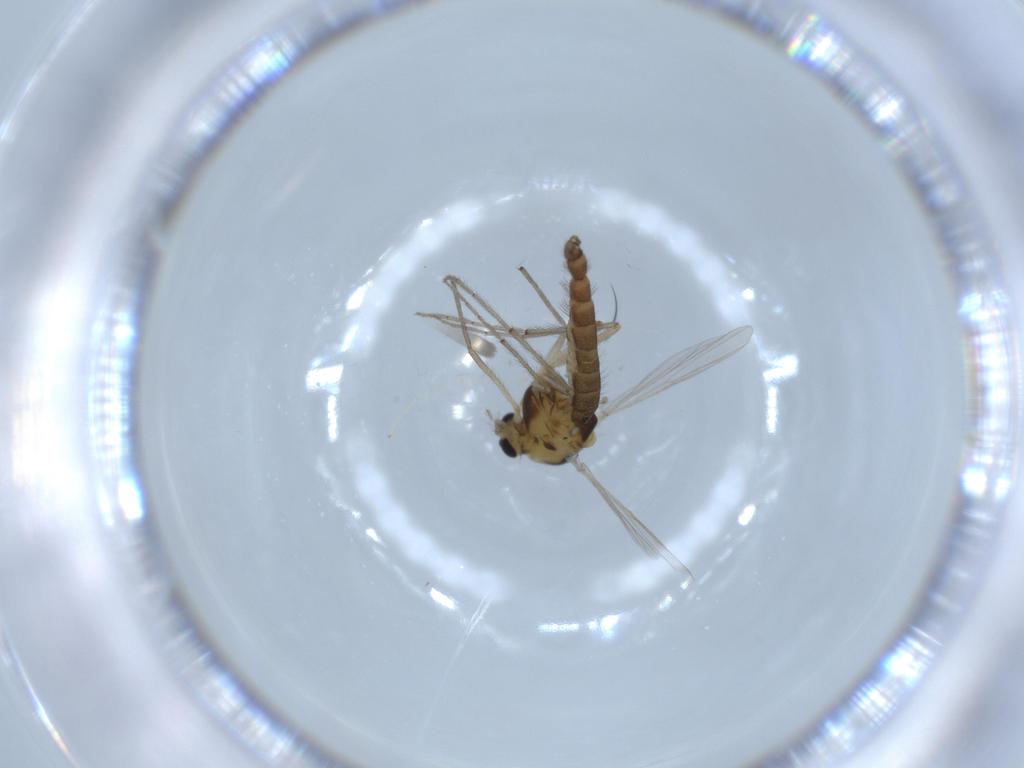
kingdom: Animalia
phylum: Arthropoda
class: Insecta
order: Diptera
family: Chironomidae
